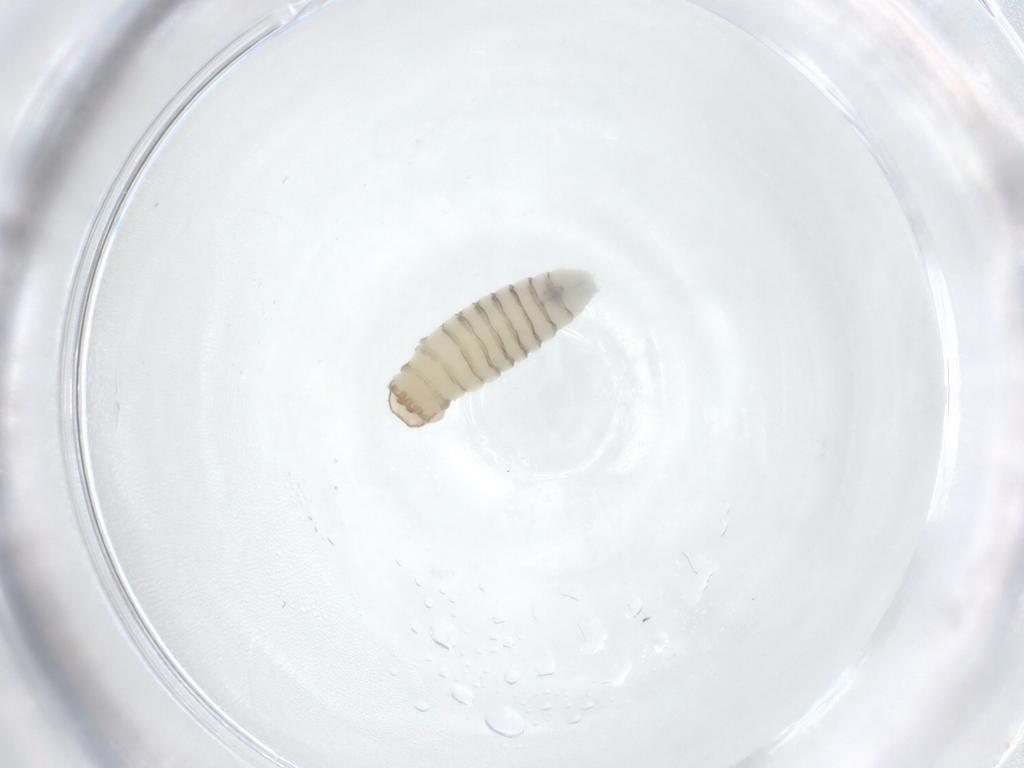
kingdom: Animalia
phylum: Arthropoda
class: Insecta
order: Diptera
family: Sarcophagidae
